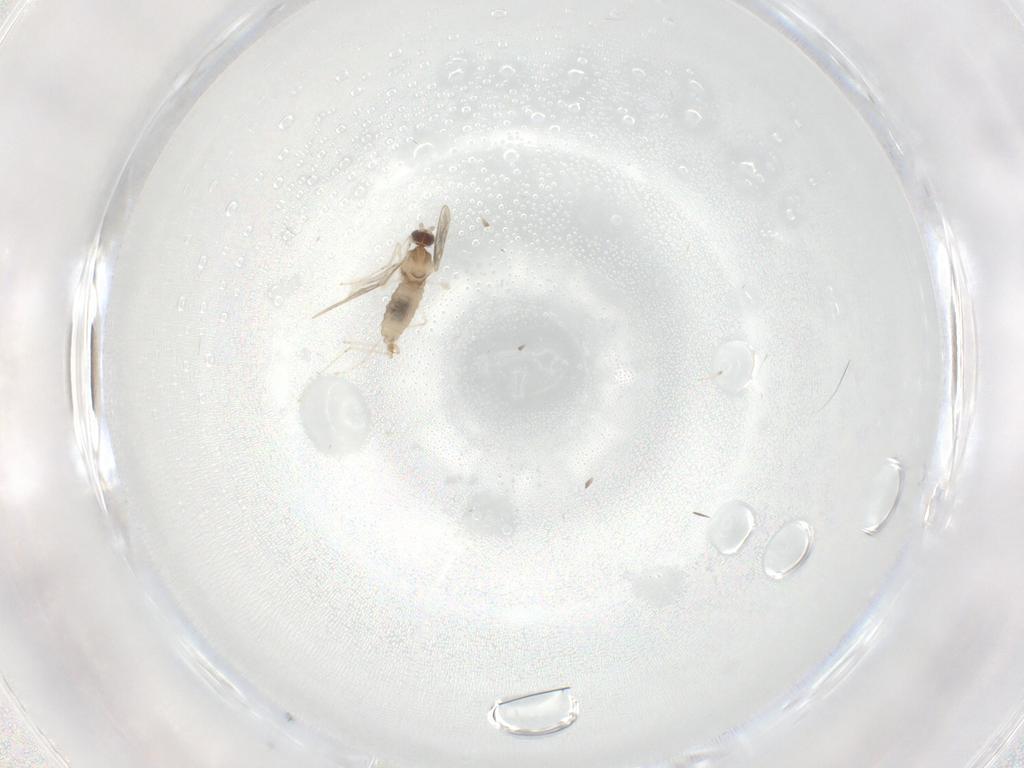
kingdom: Animalia
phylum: Arthropoda
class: Insecta
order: Diptera
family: Chironomidae
